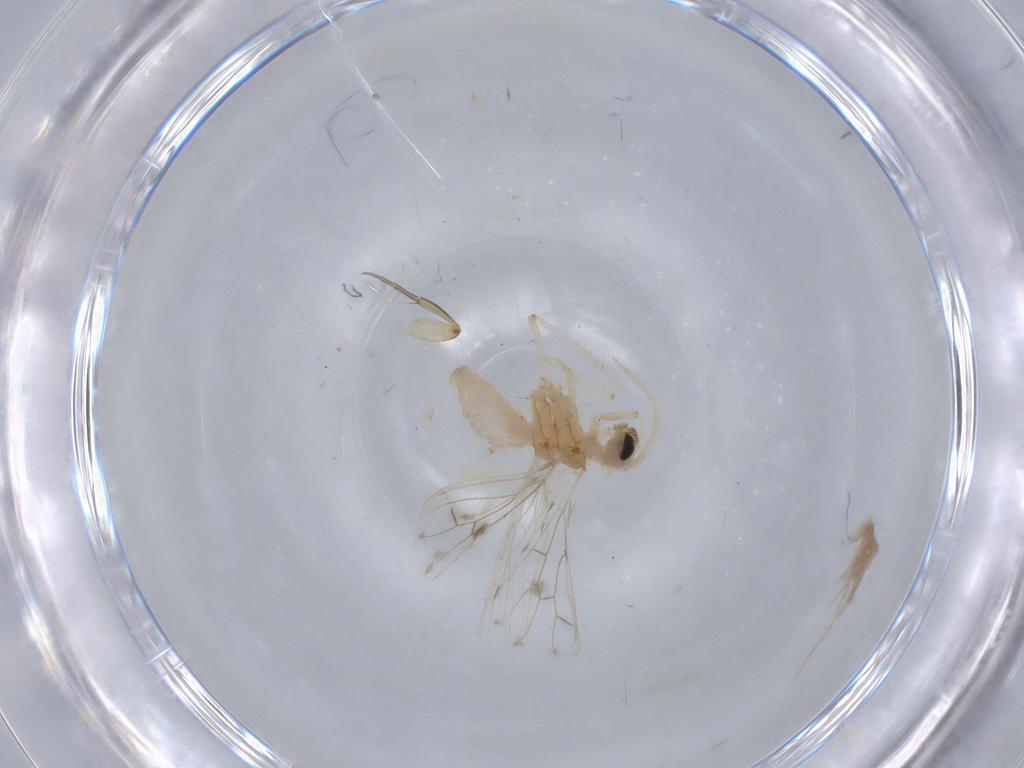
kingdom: Animalia
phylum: Arthropoda
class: Insecta
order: Neuroptera
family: Coniopterygidae
